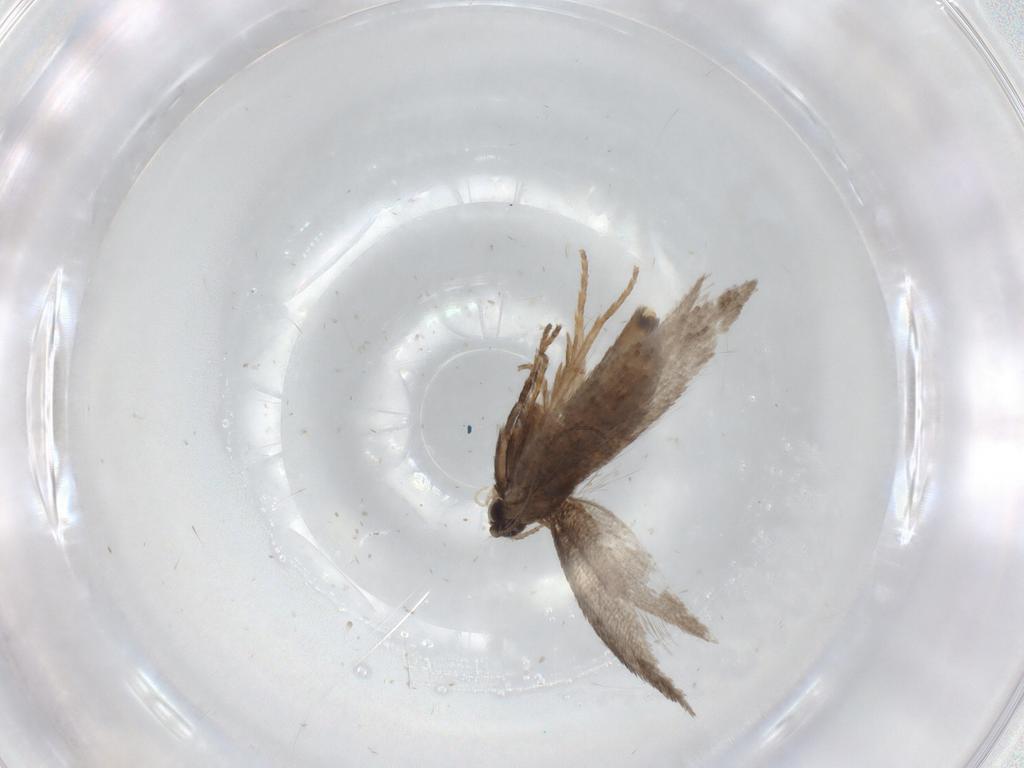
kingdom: Animalia
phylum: Arthropoda
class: Insecta
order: Lepidoptera
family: Nepticulidae
